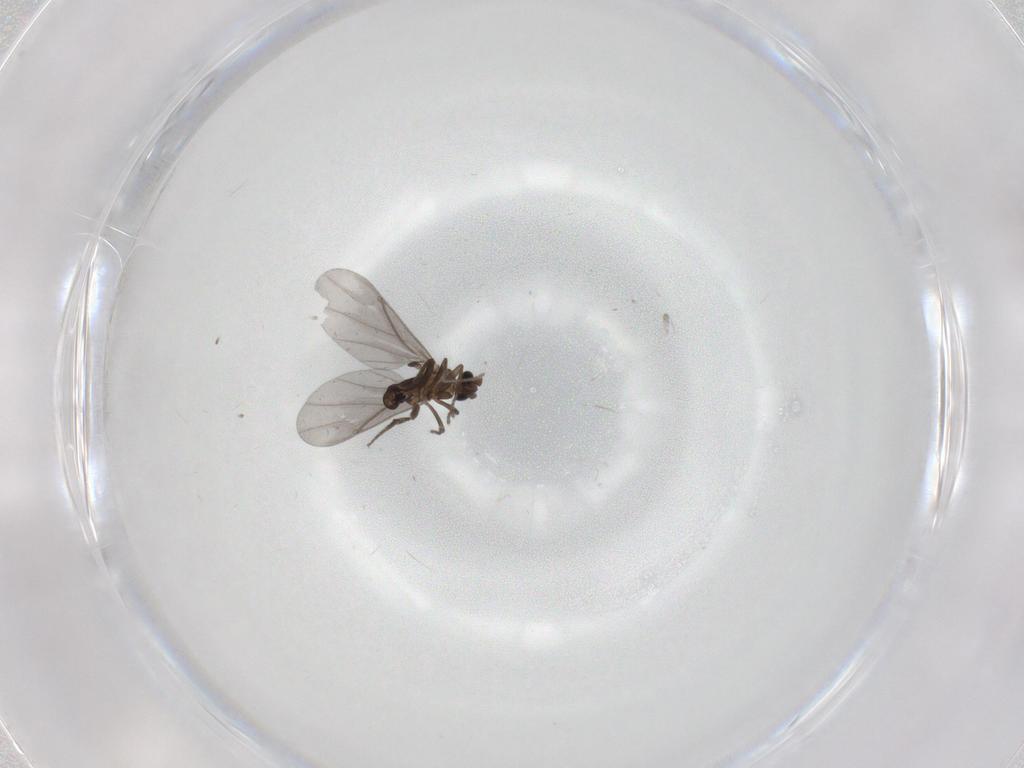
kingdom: Animalia
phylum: Arthropoda
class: Insecta
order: Diptera
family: Phoridae
